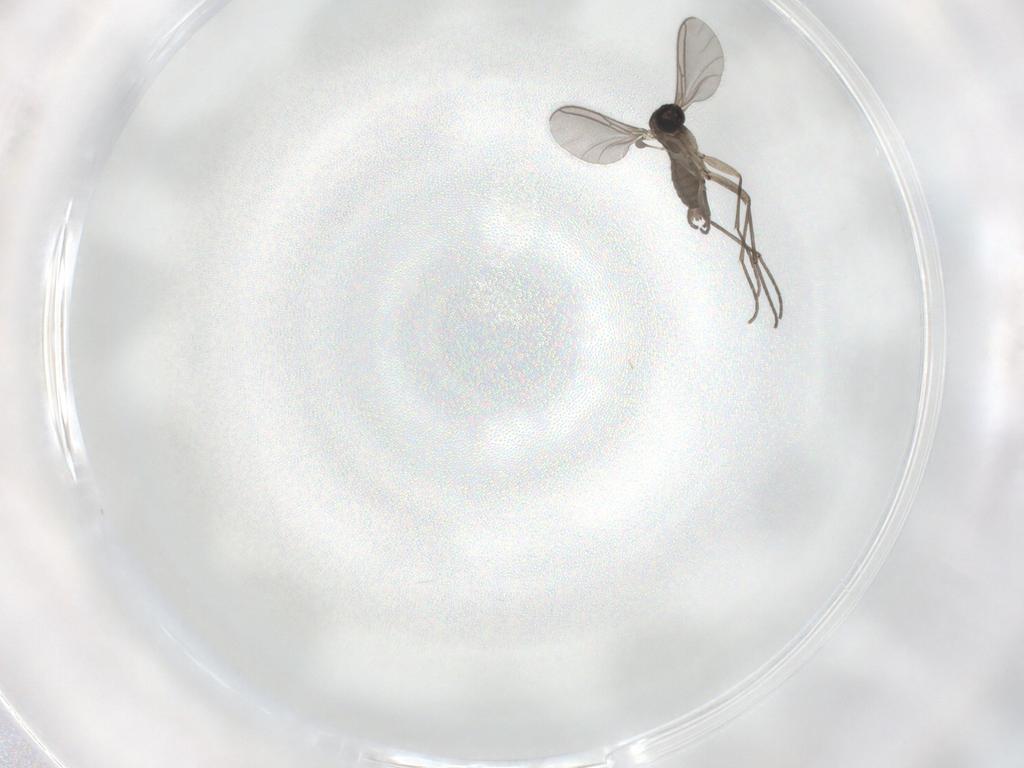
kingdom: Animalia
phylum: Arthropoda
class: Insecta
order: Diptera
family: Sciaridae
